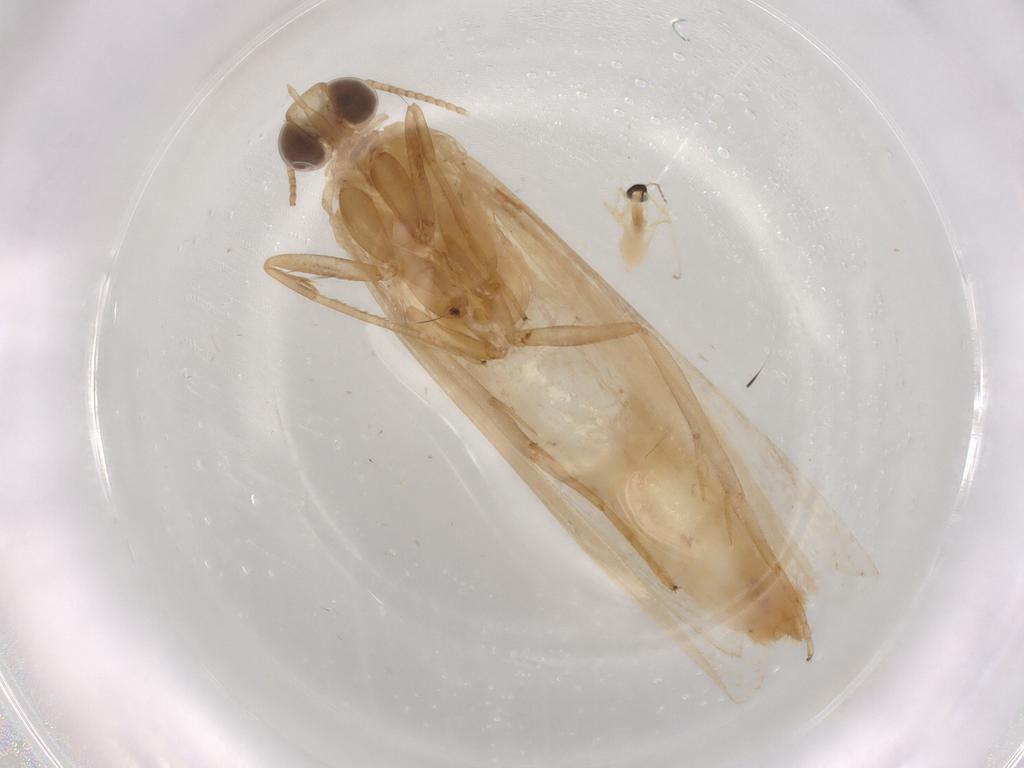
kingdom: Animalia
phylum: Arthropoda
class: Insecta
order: Lepidoptera
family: Pyralidae
